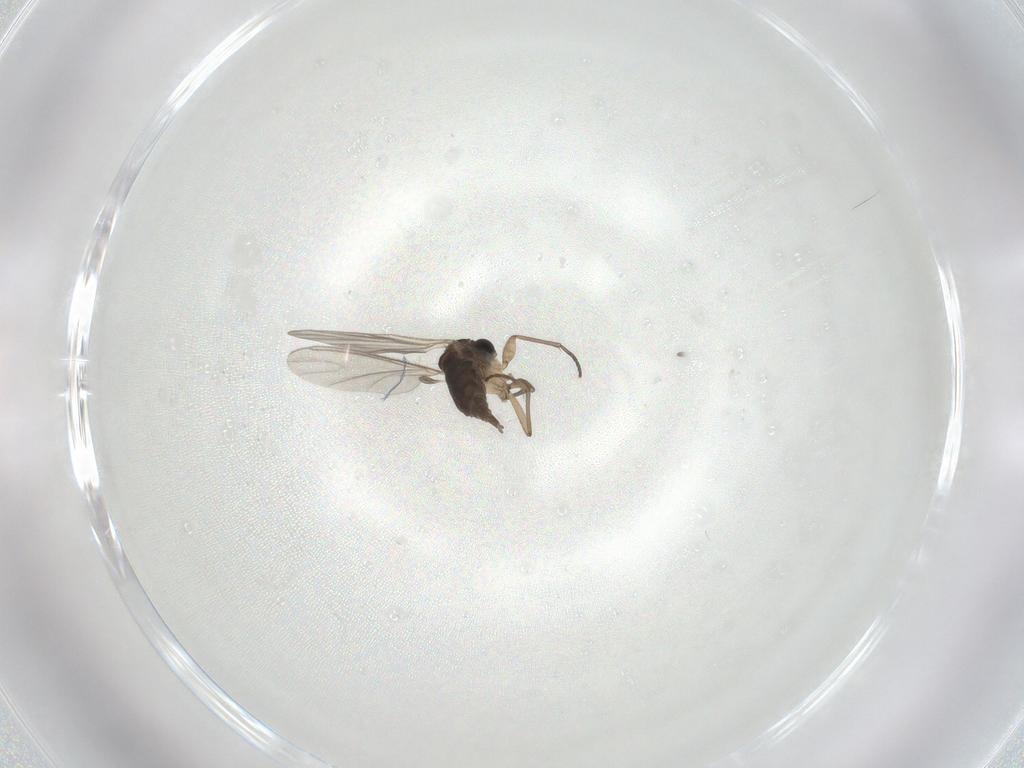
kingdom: Animalia
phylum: Arthropoda
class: Insecta
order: Diptera
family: Sciaridae
